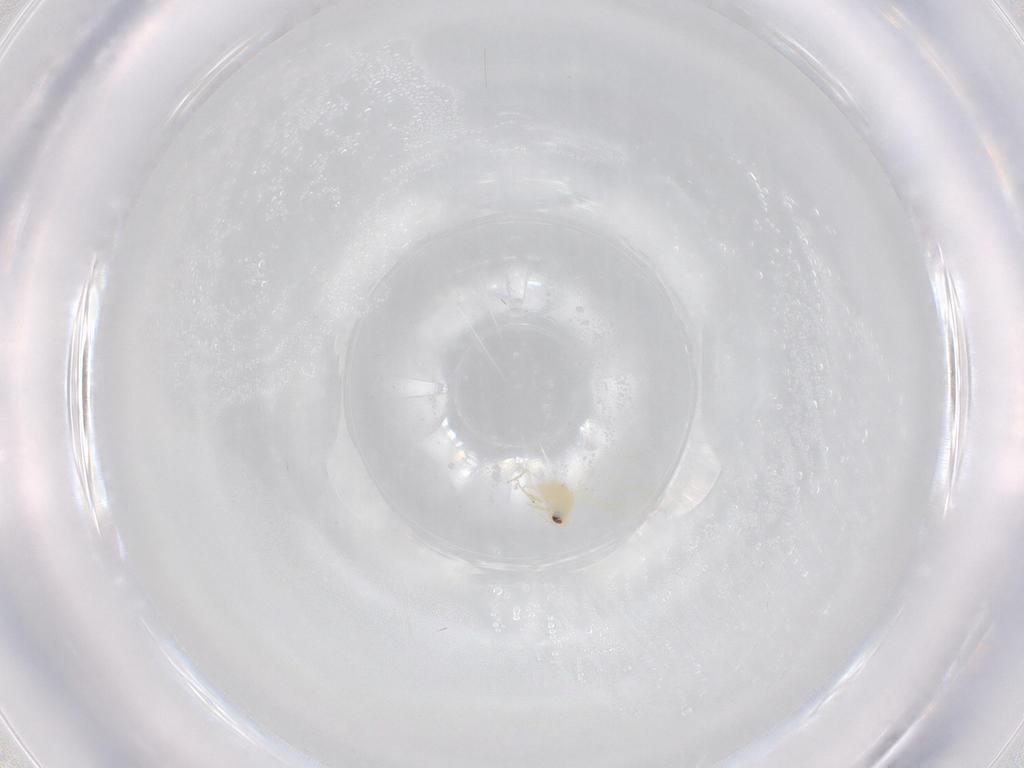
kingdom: Animalia
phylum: Arthropoda
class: Insecta
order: Hemiptera
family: Aleyrodidae
